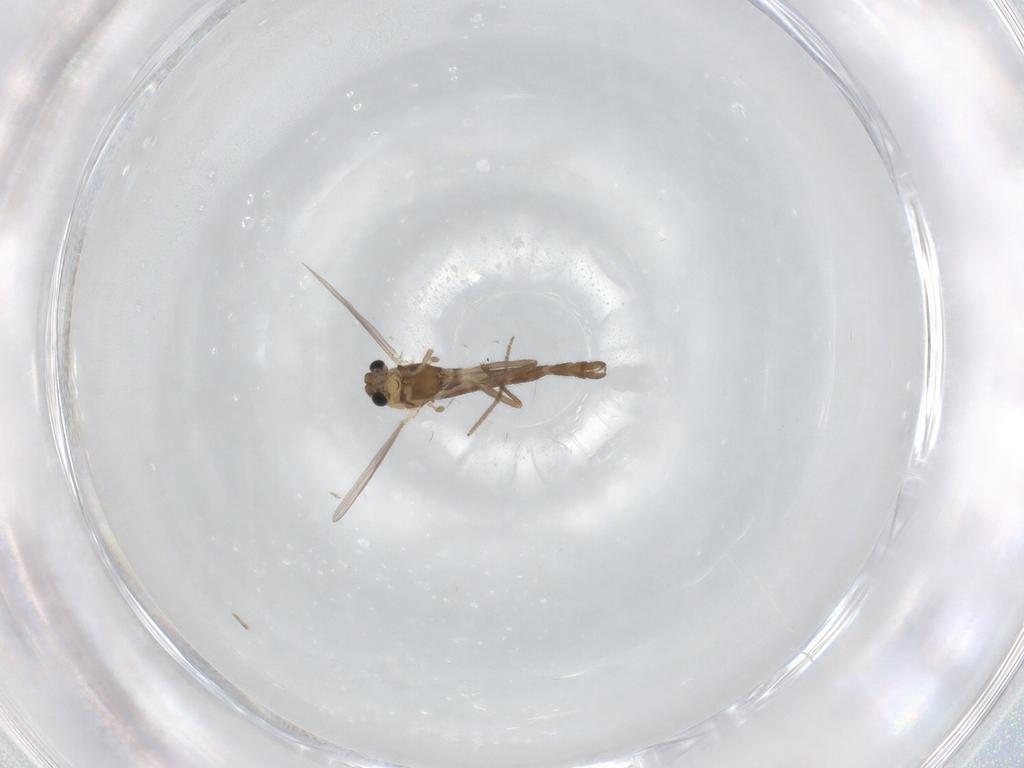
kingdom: Animalia
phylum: Arthropoda
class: Insecta
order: Diptera
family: Chironomidae
